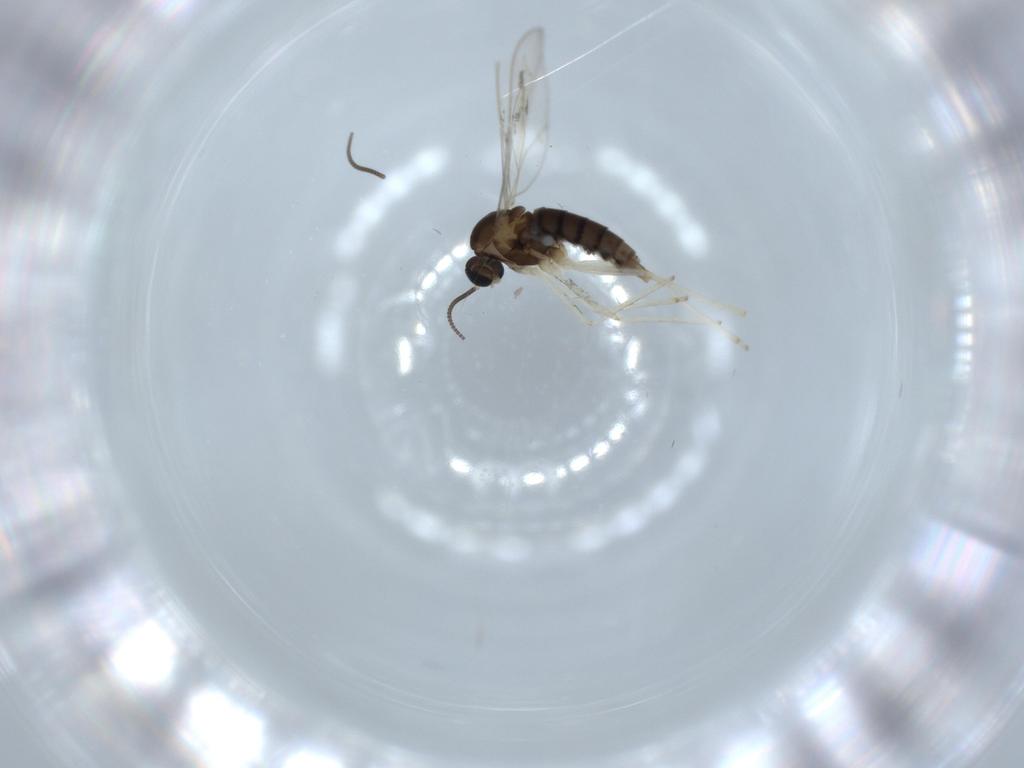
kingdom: Animalia
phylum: Arthropoda
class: Insecta
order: Diptera
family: Cecidomyiidae
